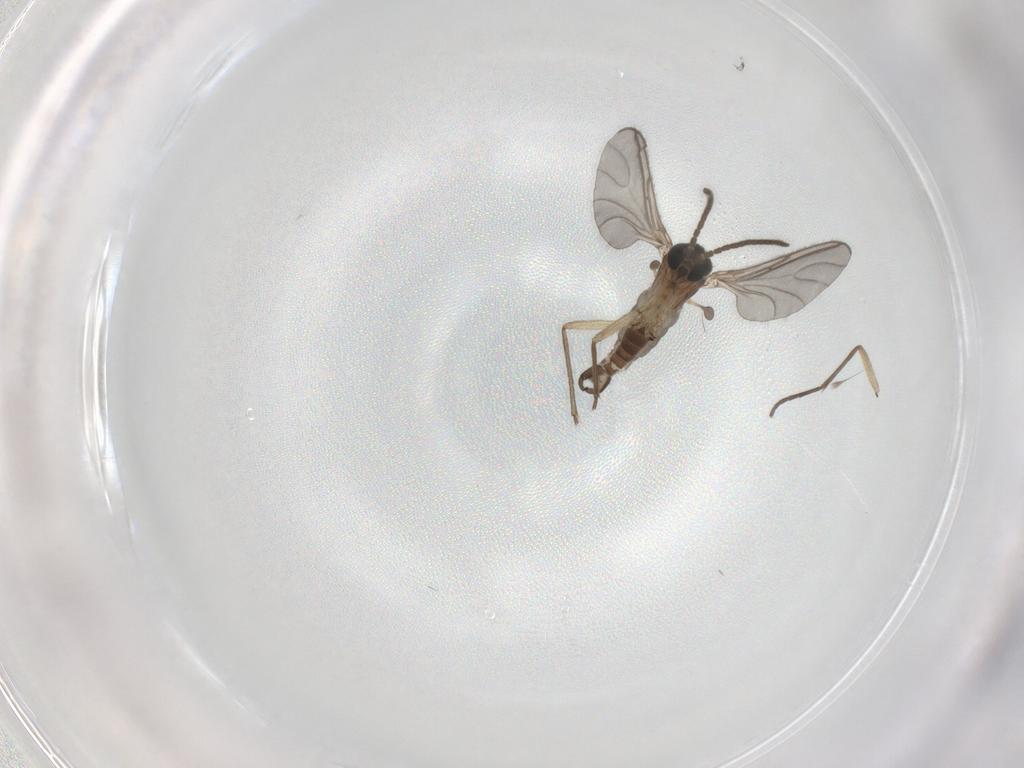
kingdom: Animalia
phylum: Arthropoda
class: Insecta
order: Diptera
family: Sciaridae
